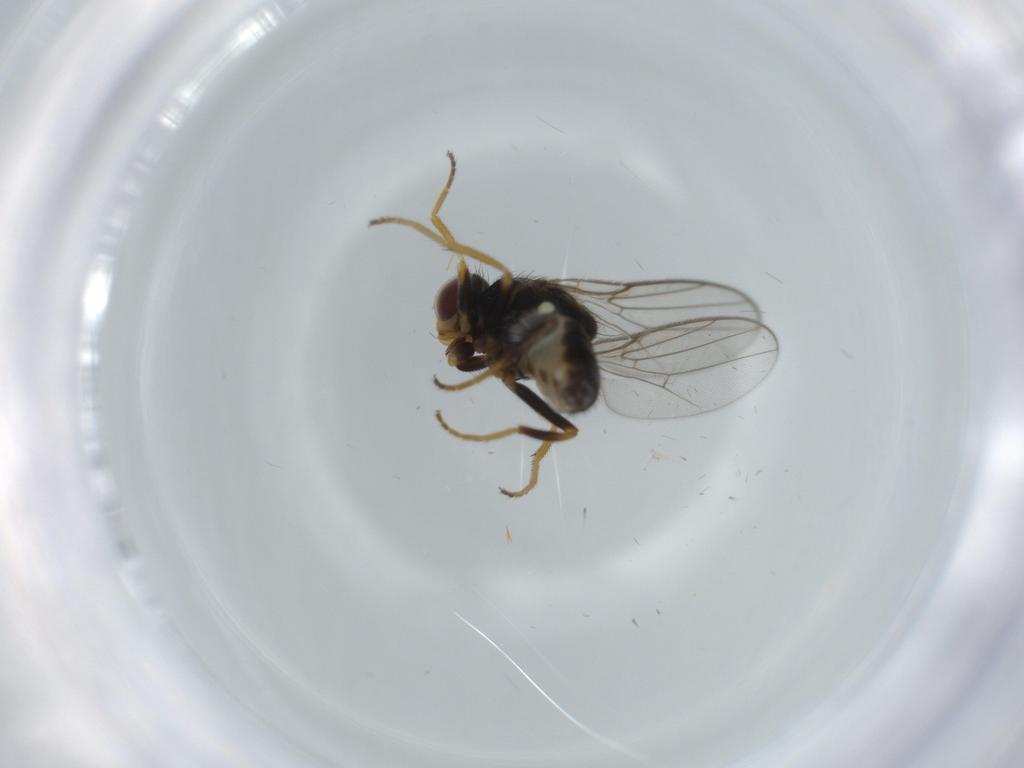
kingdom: Animalia
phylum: Arthropoda
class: Insecta
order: Diptera
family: Chloropidae
